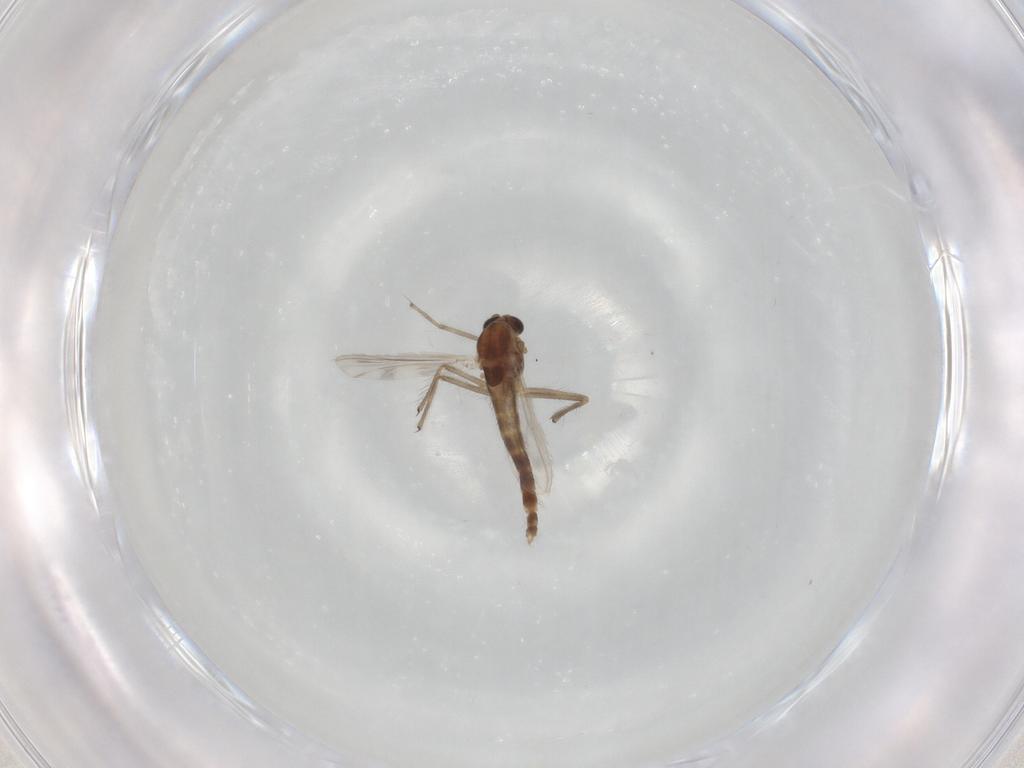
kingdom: Animalia
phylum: Arthropoda
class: Insecta
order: Diptera
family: Chironomidae
